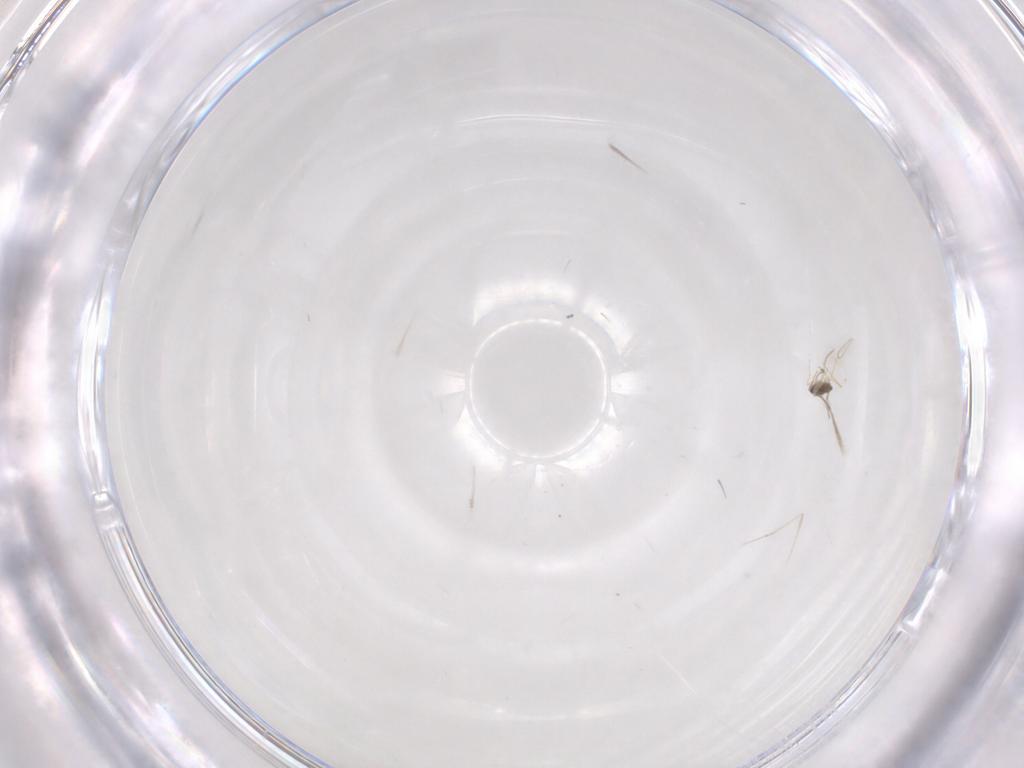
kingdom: Animalia
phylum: Arthropoda
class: Insecta
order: Diptera
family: Cecidomyiidae
